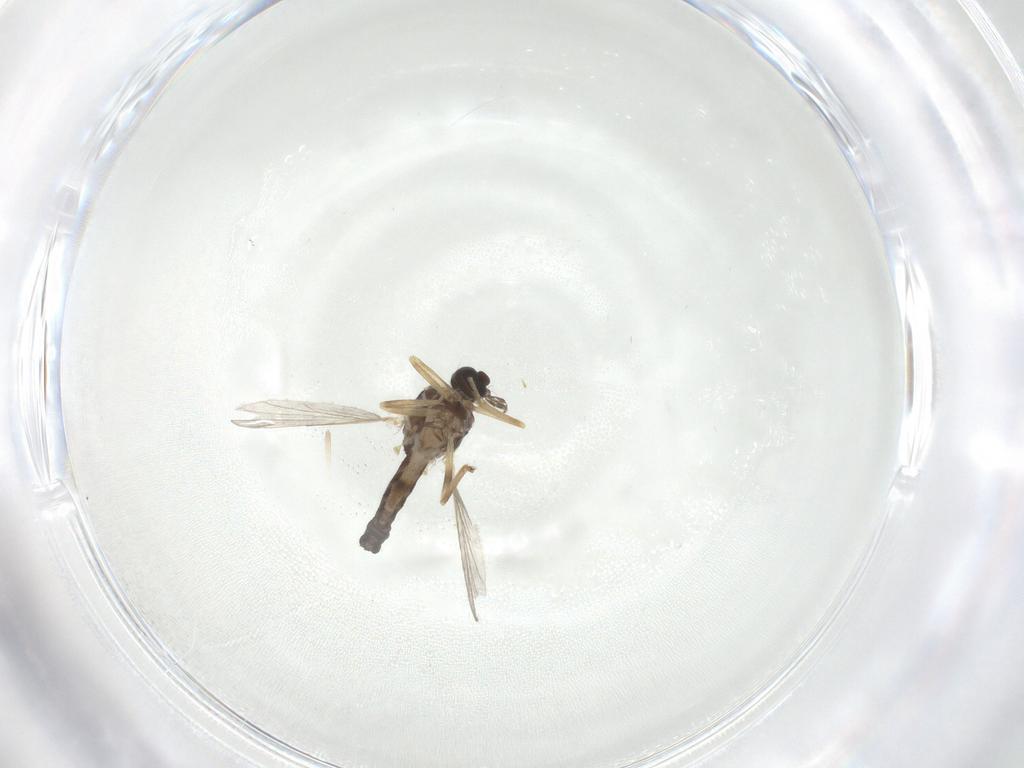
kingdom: Animalia
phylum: Arthropoda
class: Insecta
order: Diptera
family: Ceratopogonidae
